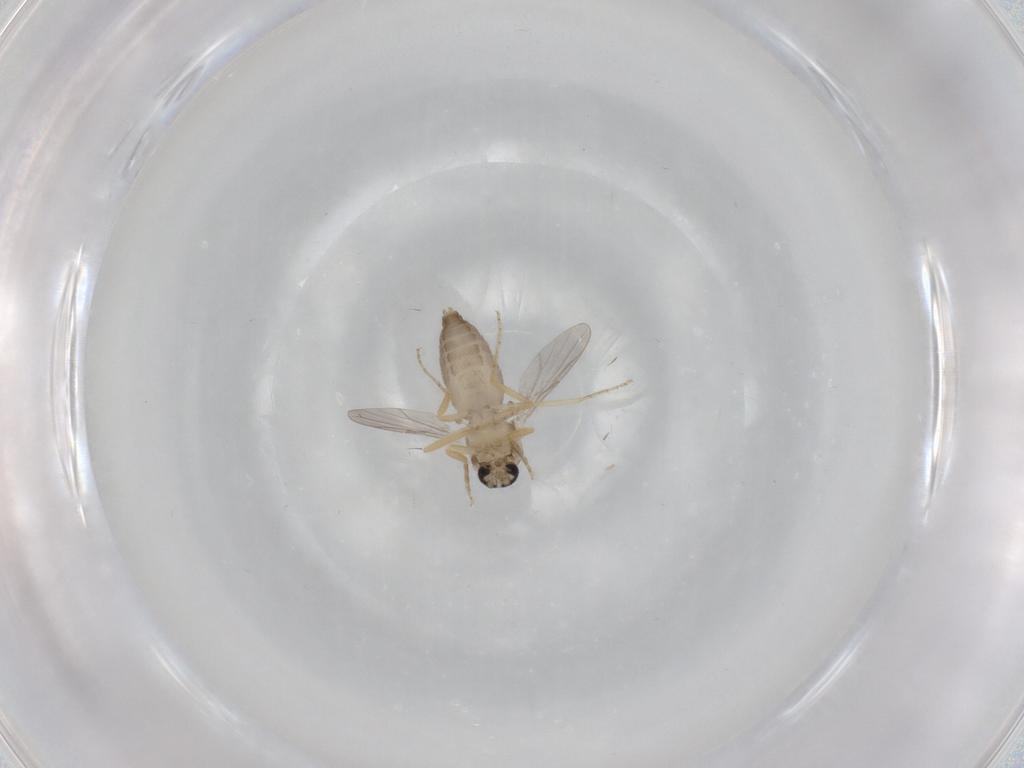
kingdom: Animalia
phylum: Arthropoda
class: Insecta
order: Diptera
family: Ceratopogonidae
